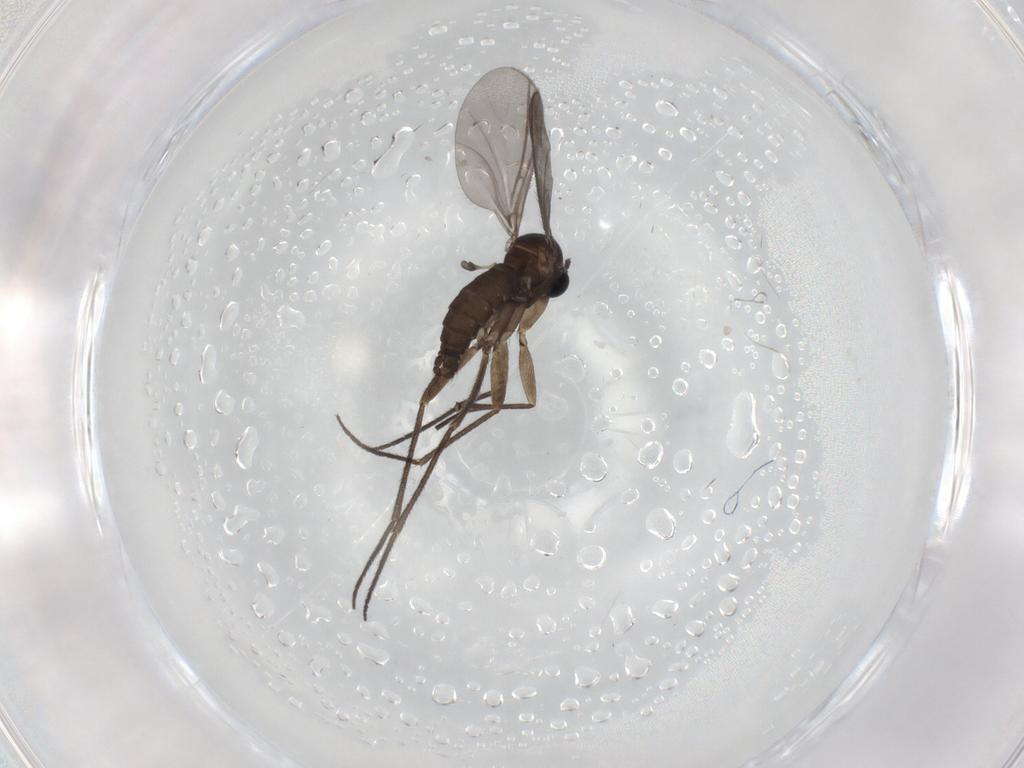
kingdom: Animalia
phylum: Arthropoda
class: Insecta
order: Diptera
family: Sciaridae
